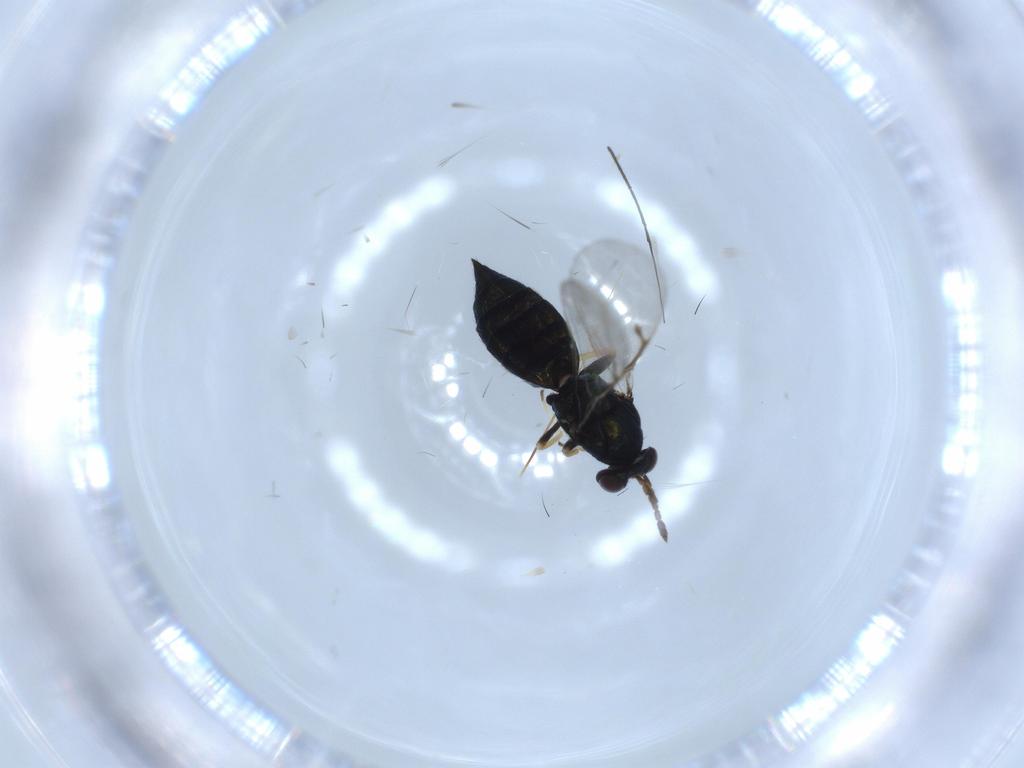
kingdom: Animalia
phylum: Arthropoda
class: Insecta
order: Hymenoptera
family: Eulophidae
